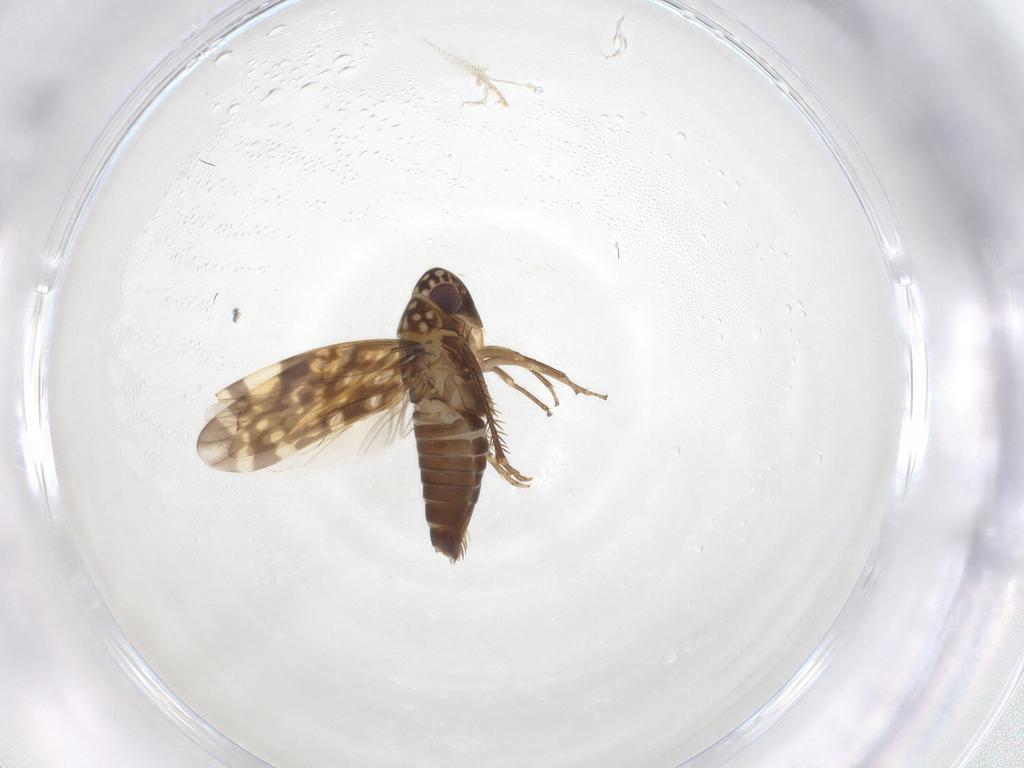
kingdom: Animalia
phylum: Arthropoda
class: Insecta
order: Hemiptera
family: Cicadellidae
